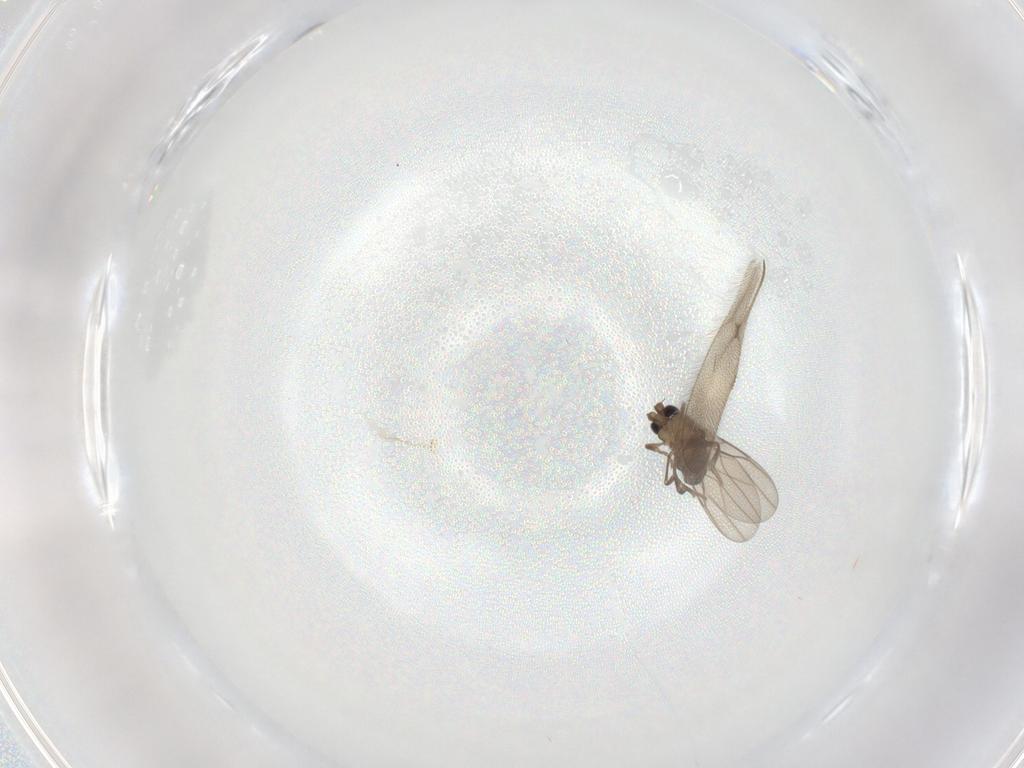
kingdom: Animalia
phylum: Arthropoda
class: Insecta
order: Diptera
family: Phoridae
